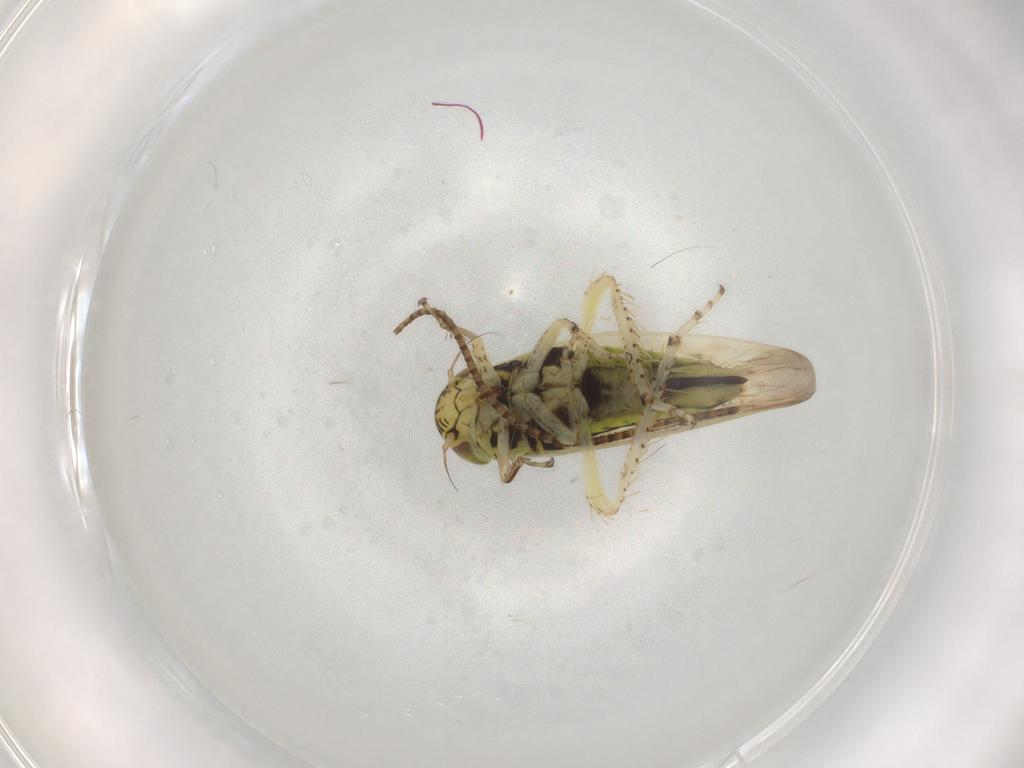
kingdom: Animalia
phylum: Arthropoda
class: Insecta
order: Hemiptera
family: Cicadellidae
